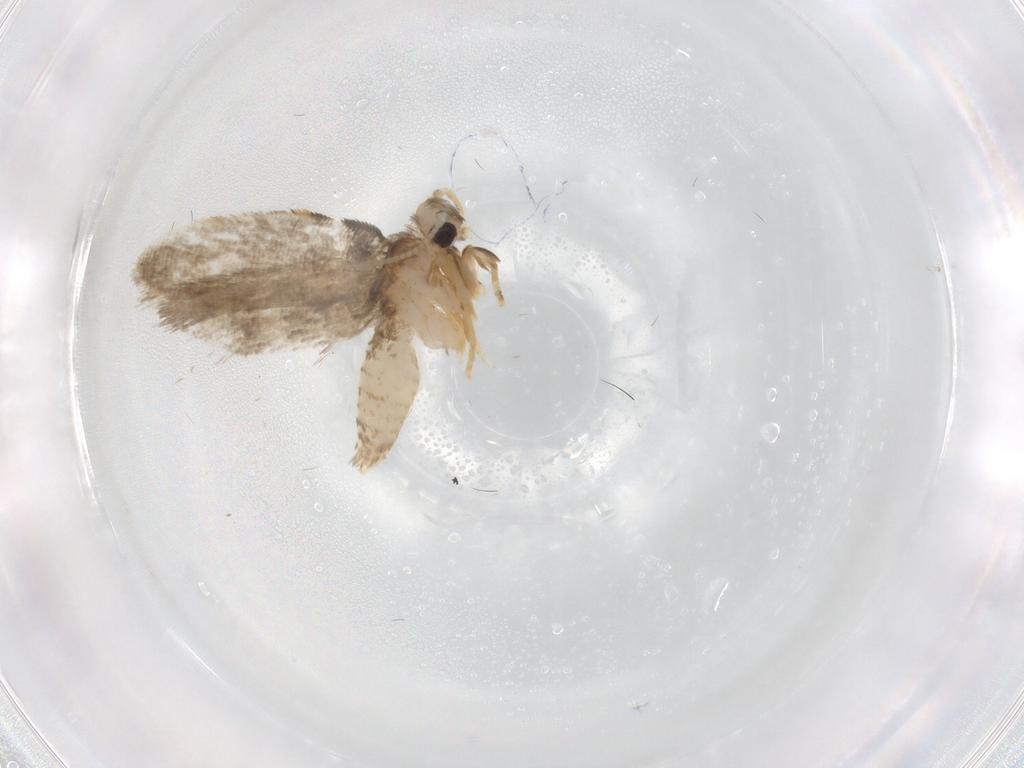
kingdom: Animalia
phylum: Arthropoda
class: Insecta
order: Lepidoptera
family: Psychidae
